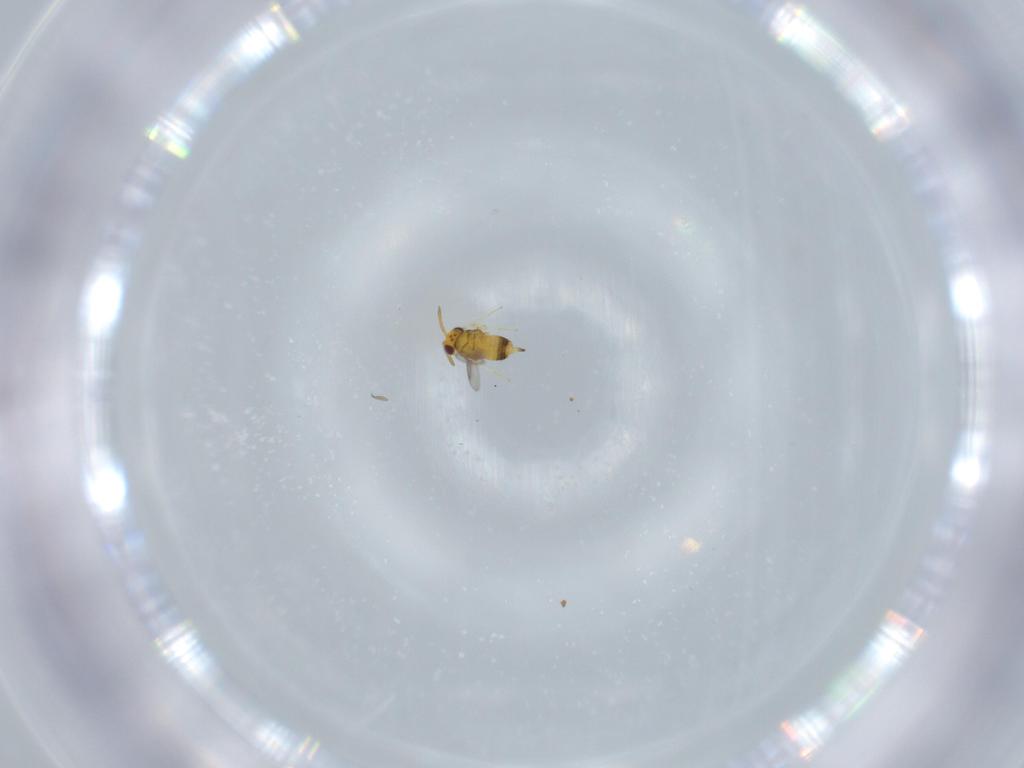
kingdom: Animalia
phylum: Arthropoda
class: Insecta
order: Hymenoptera
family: Aphelinidae
